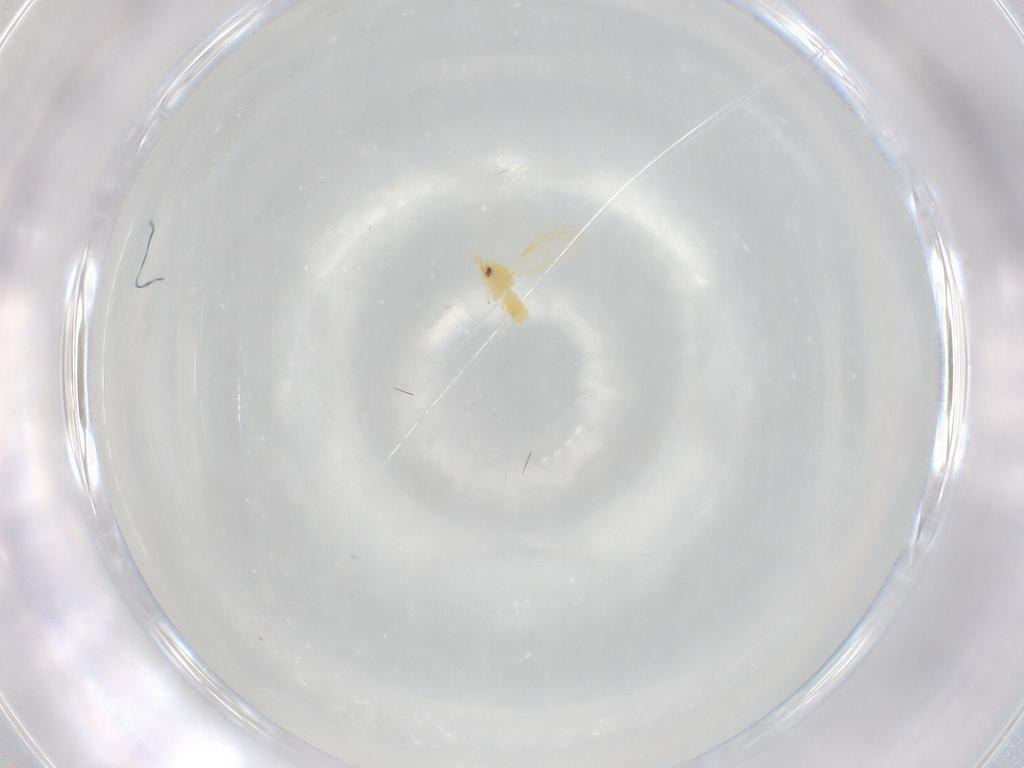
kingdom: Animalia
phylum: Arthropoda
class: Insecta
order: Hemiptera
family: Aleyrodidae
